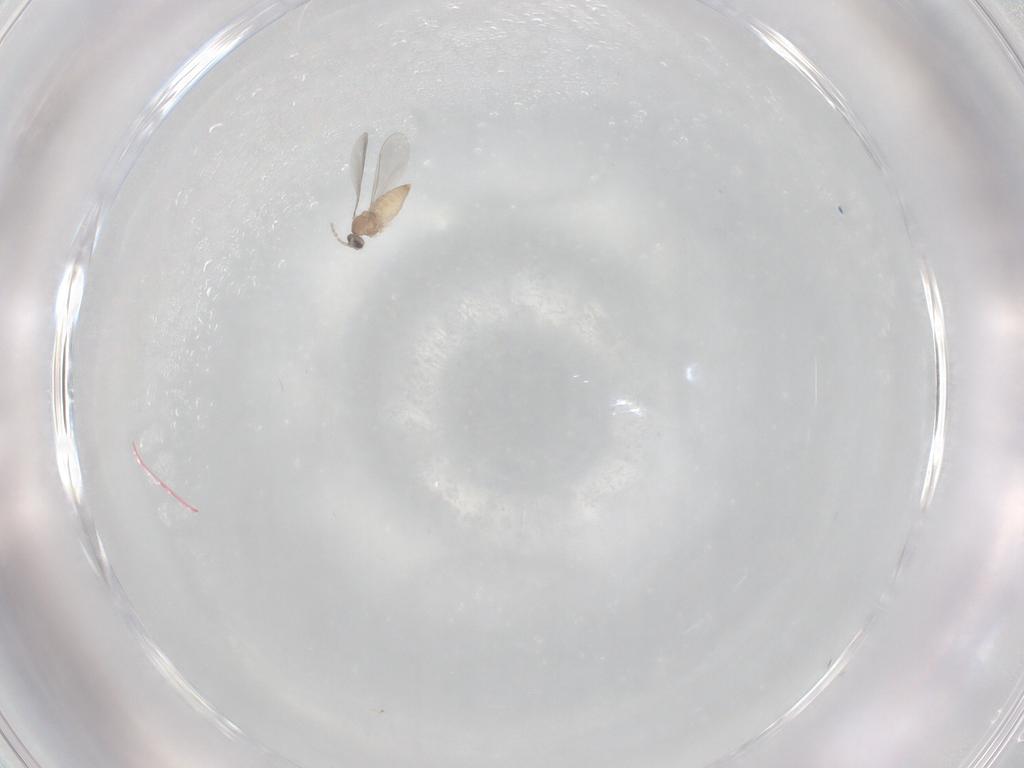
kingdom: Animalia
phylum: Arthropoda
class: Insecta
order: Diptera
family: Cecidomyiidae
